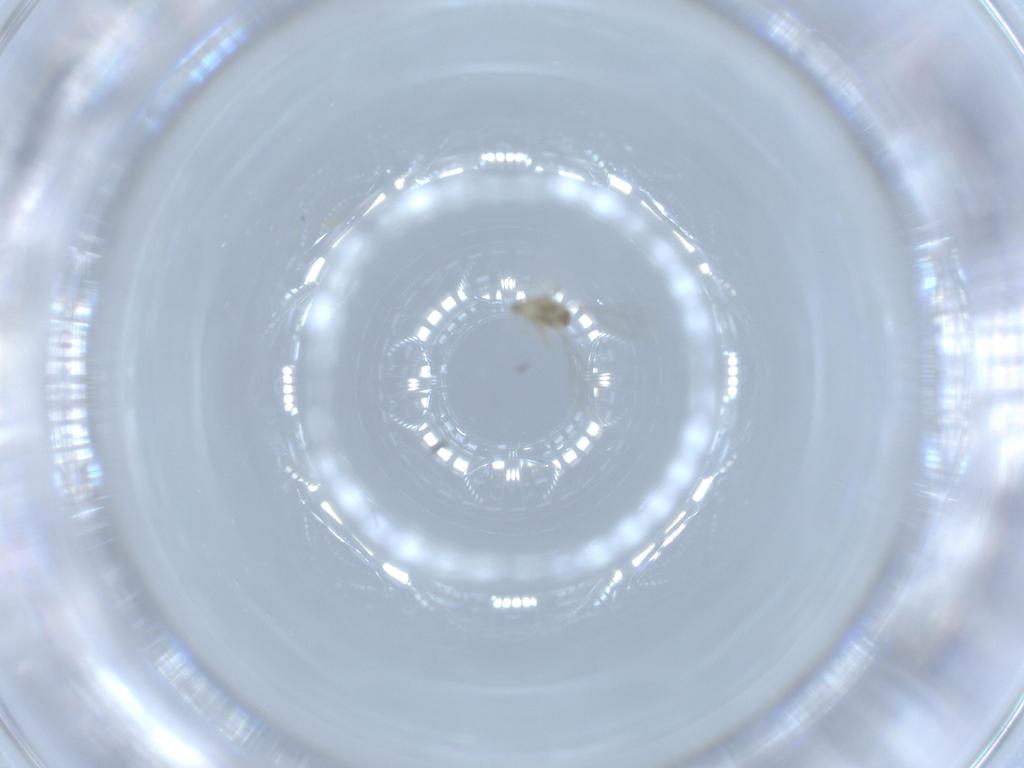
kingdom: Animalia
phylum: Arthropoda
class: Insecta
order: Diptera
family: Cecidomyiidae
